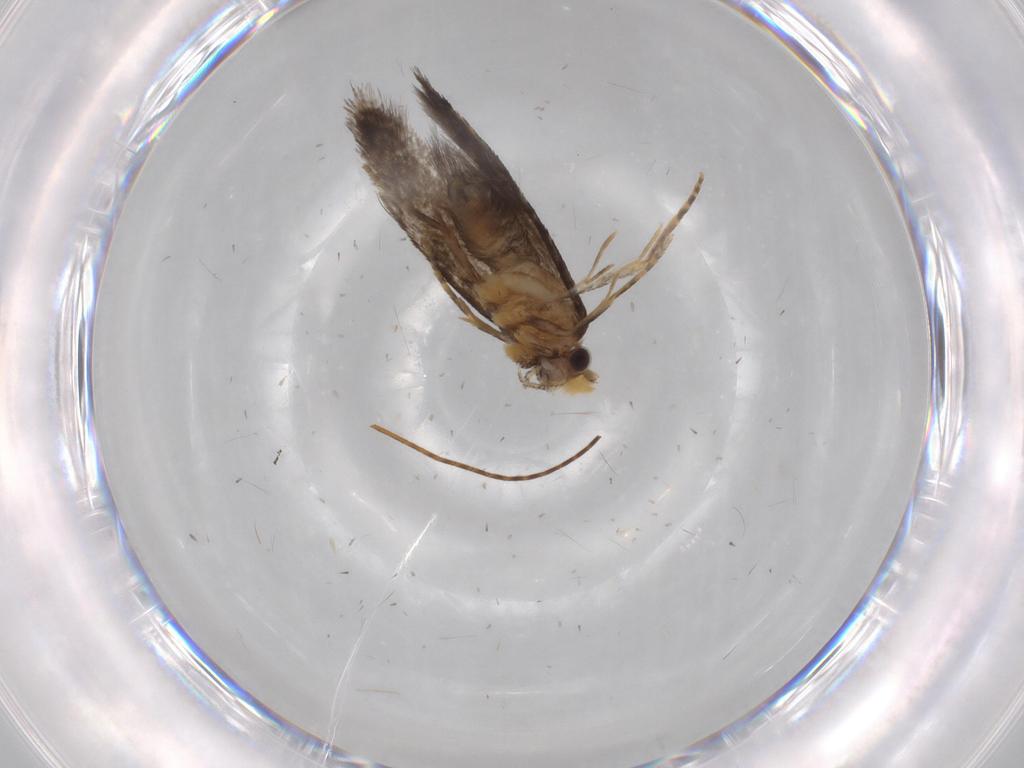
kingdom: Animalia
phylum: Arthropoda
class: Insecta
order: Lepidoptera
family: Tineidae
